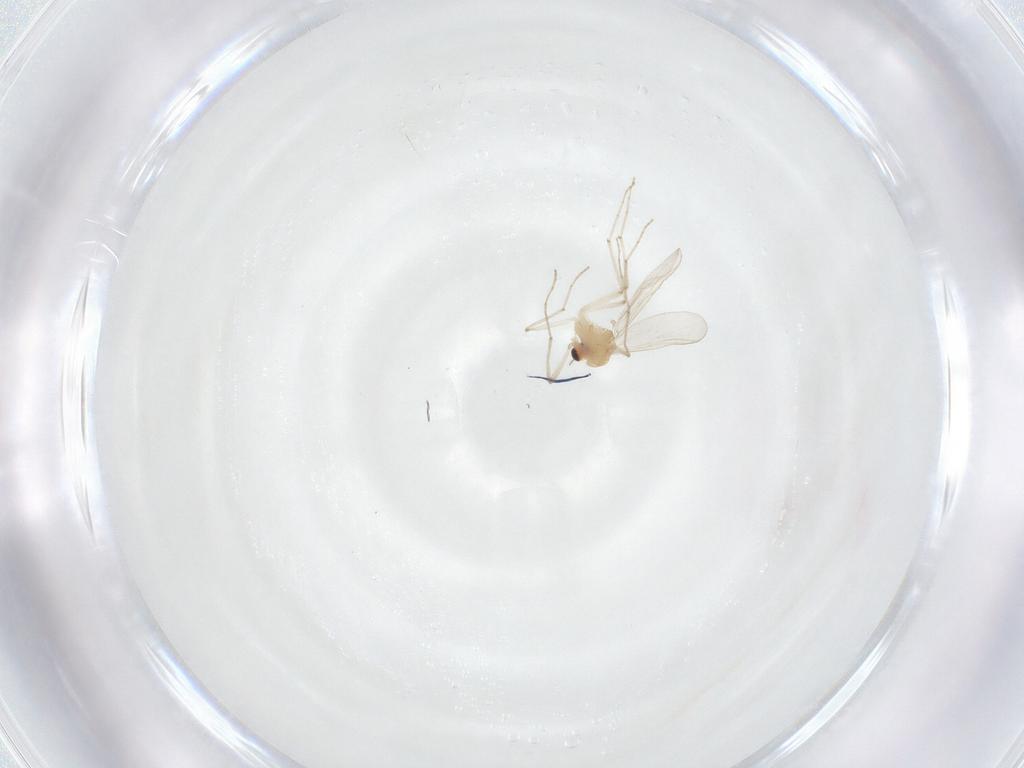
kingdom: Animalia
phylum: Arthropoda
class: Insecta
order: Diptera
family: Chironomidae
